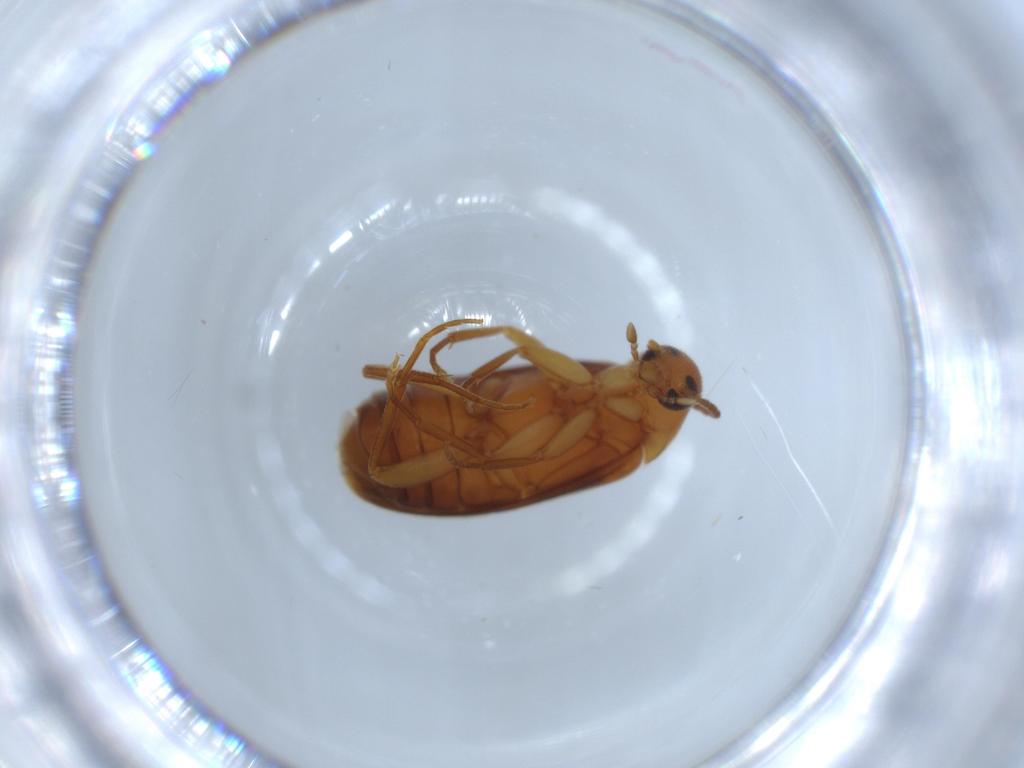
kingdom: Animalia
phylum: Arthropoda
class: Insecta
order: Coleoptera
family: Scraptiidae
